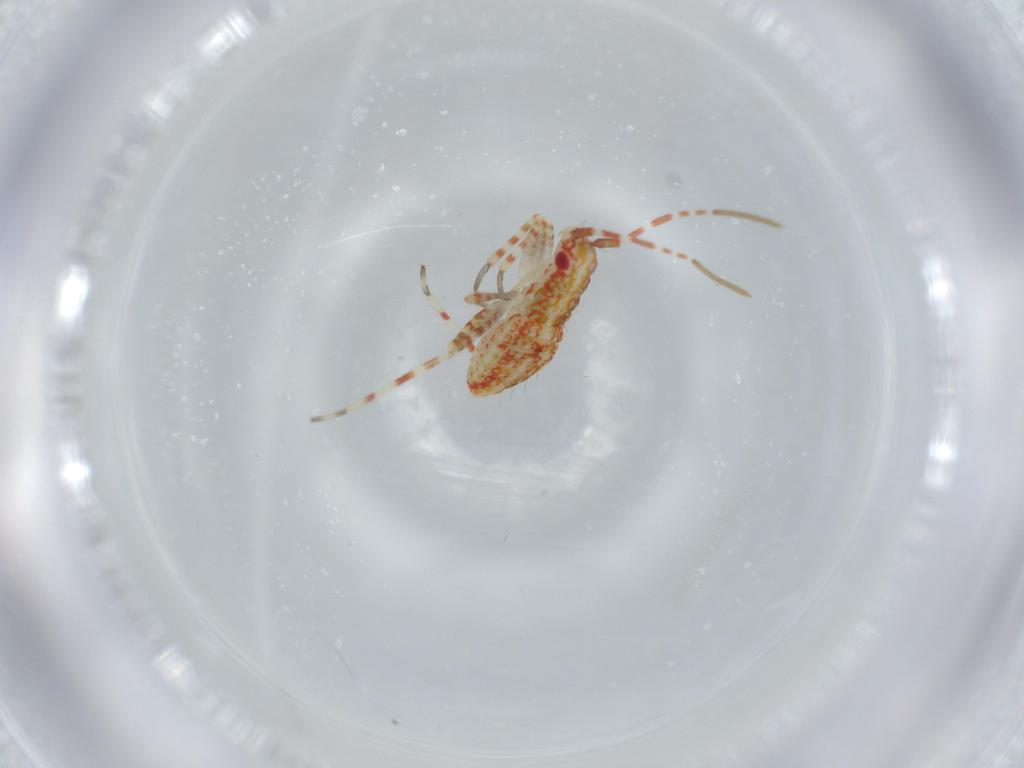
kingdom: Animalia
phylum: Arthropoda
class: Insecta
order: Hemiptera
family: Miridae
